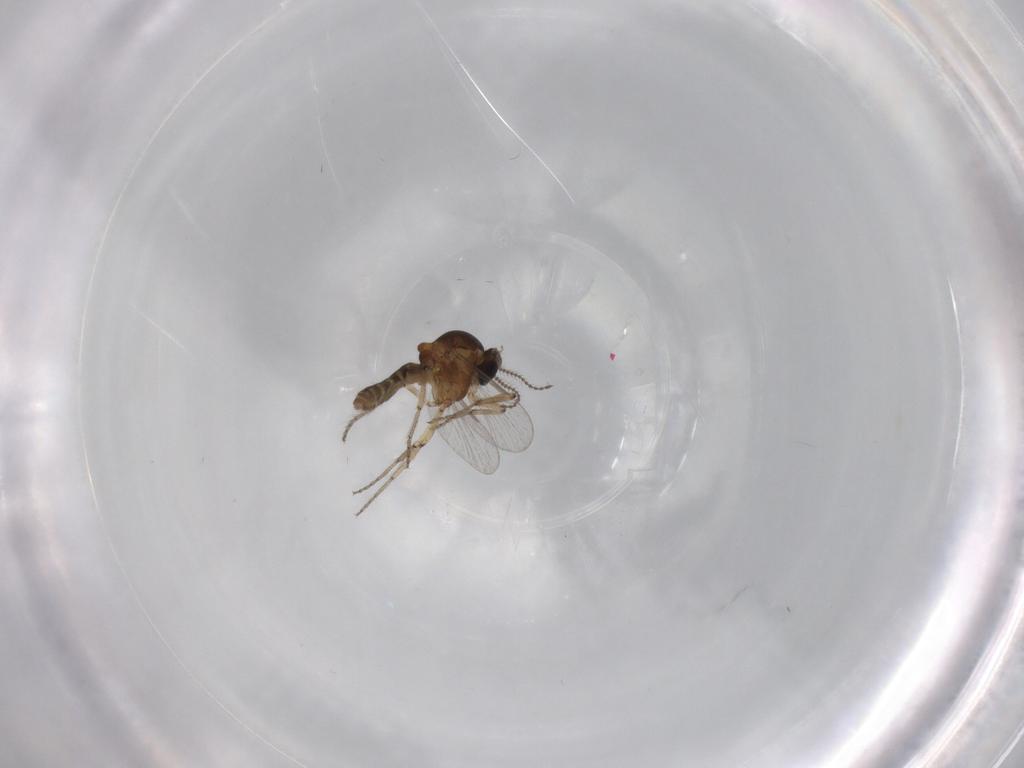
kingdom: Animalia
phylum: Arthropoda
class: Insecta
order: Diptera
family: Ceratopogonidae
